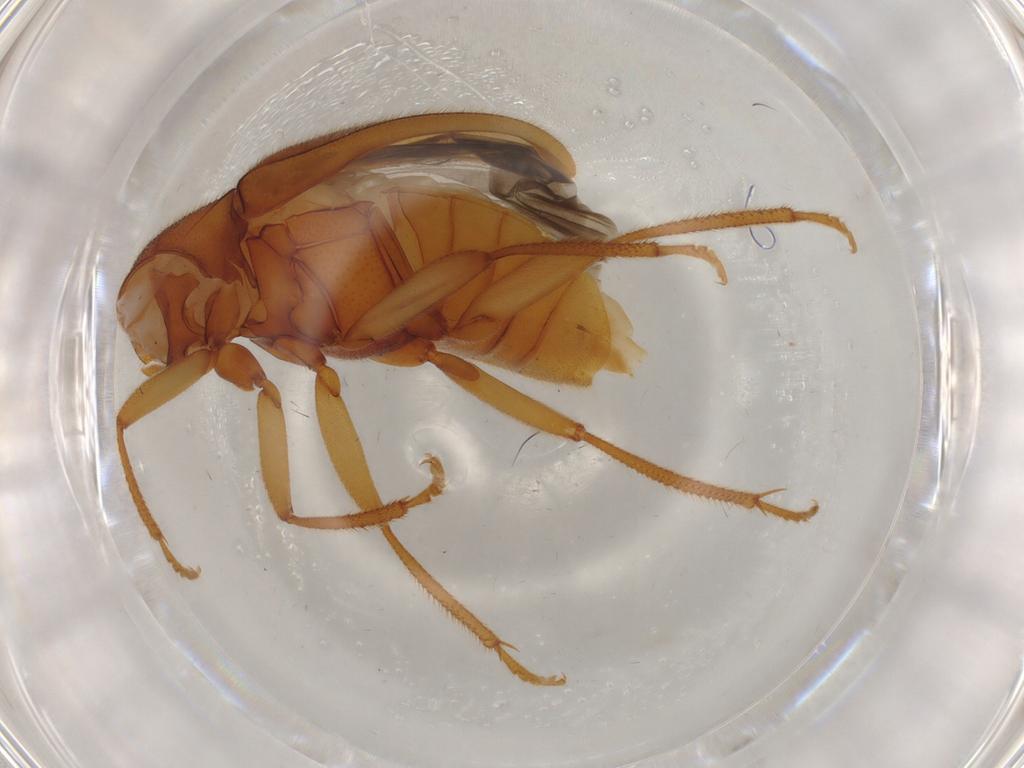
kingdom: Animalia
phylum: Arthropoda
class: Insecta
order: Coleoptera
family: Ptilodactylidae
